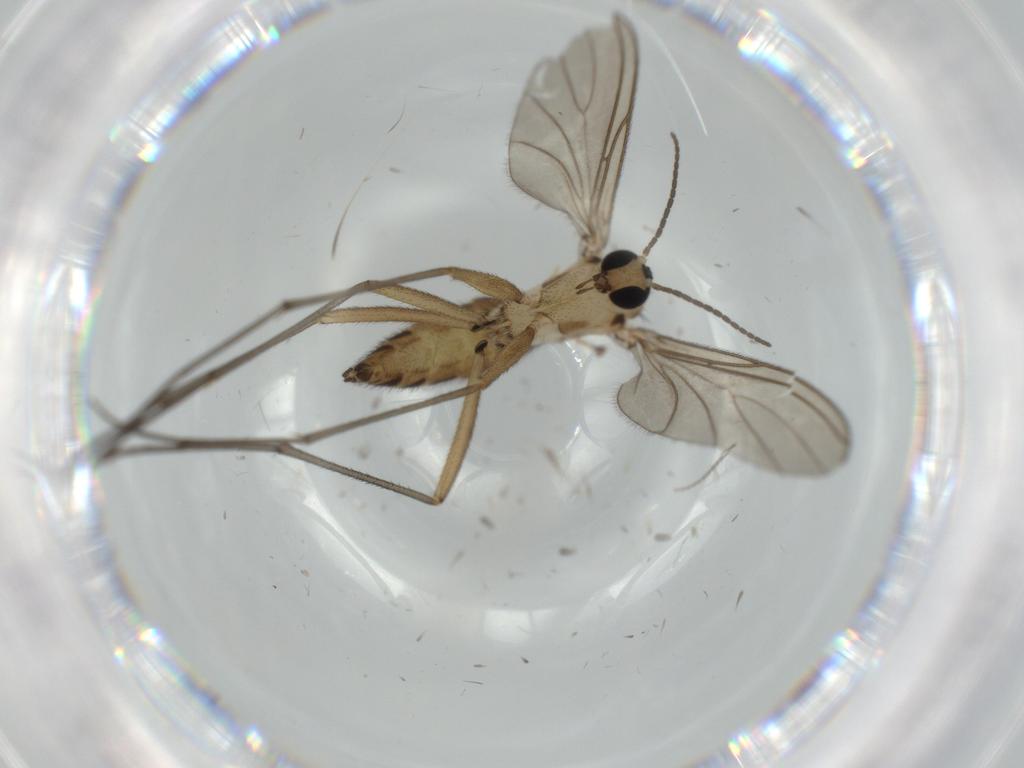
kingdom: Animalia
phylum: Arthropoda
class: Insecta
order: Diptera
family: Sciaridae
